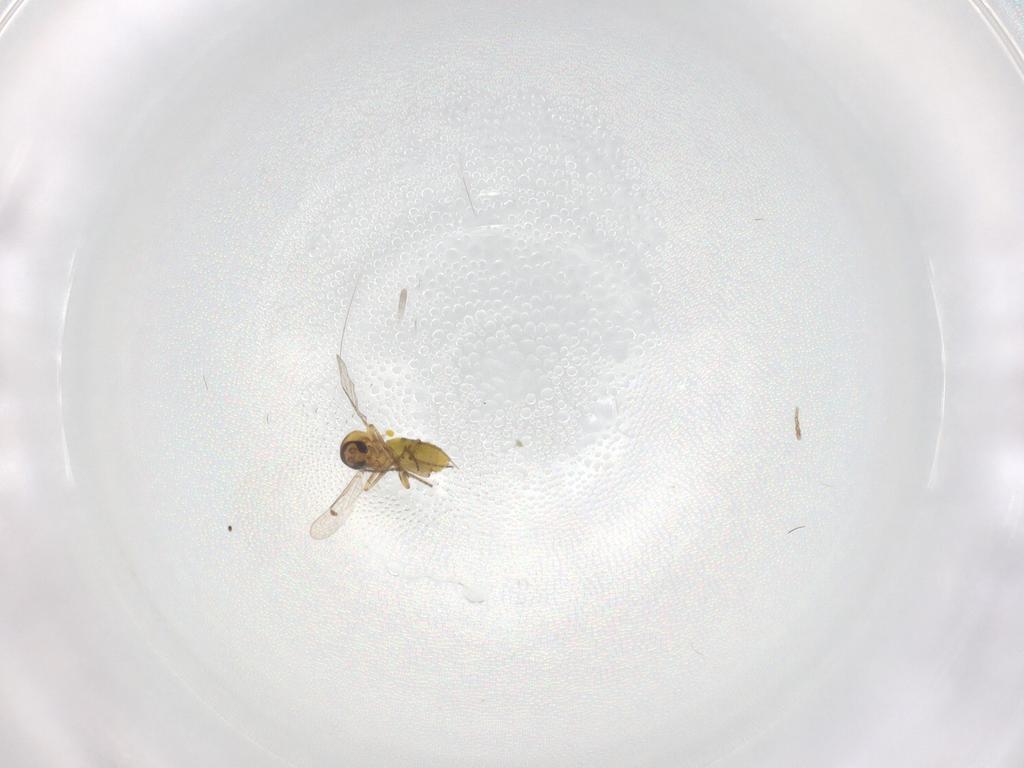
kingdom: Animalia
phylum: Arthropoda
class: Insecta
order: Diptera
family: Cecidomyiidae
